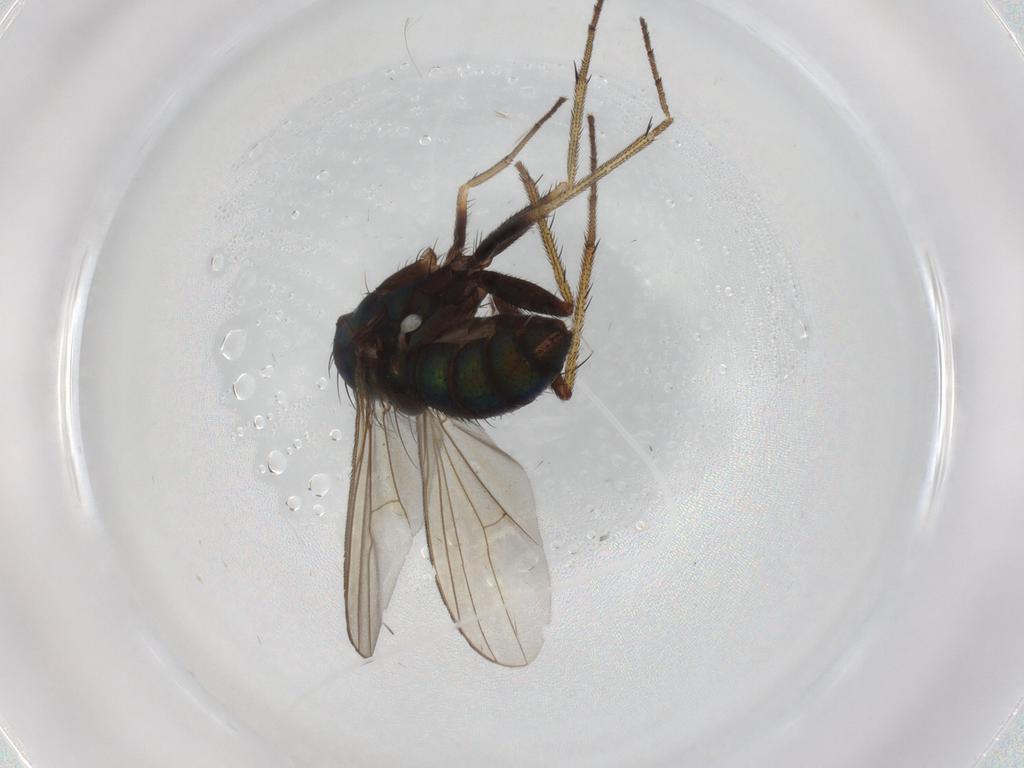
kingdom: Animalia
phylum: Arthropoda
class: Insecta
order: Diptera
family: Dolichopodidae
